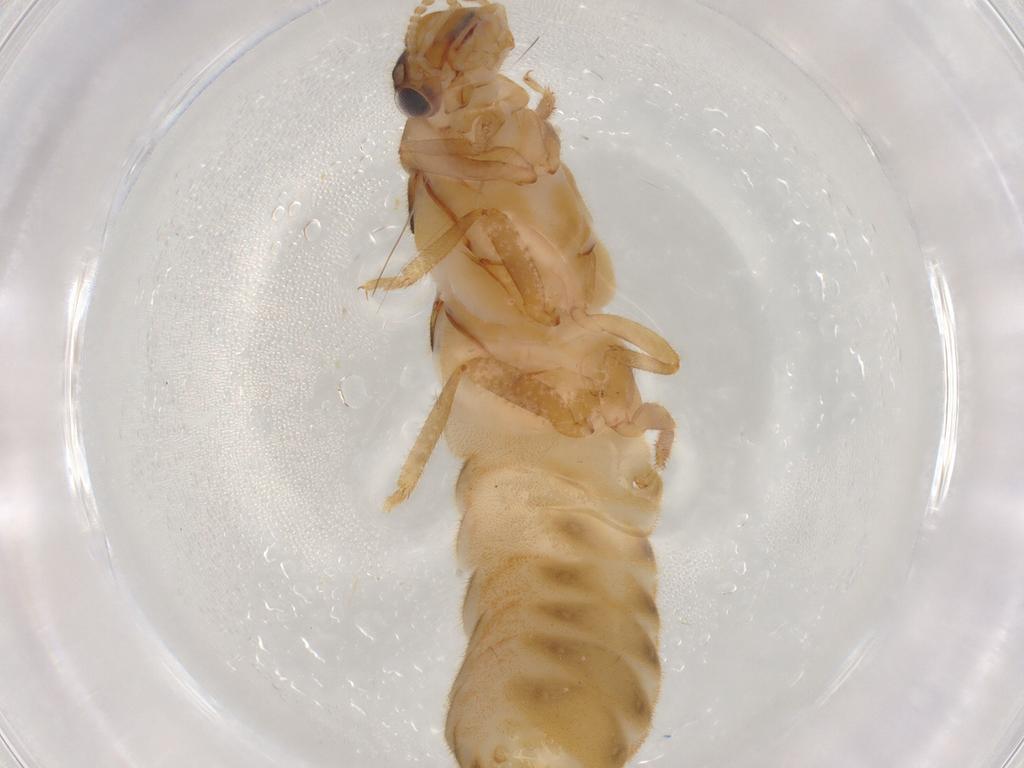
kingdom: Animalia
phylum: Arthropoda
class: Insecta
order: Blattodea
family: Termitidae
